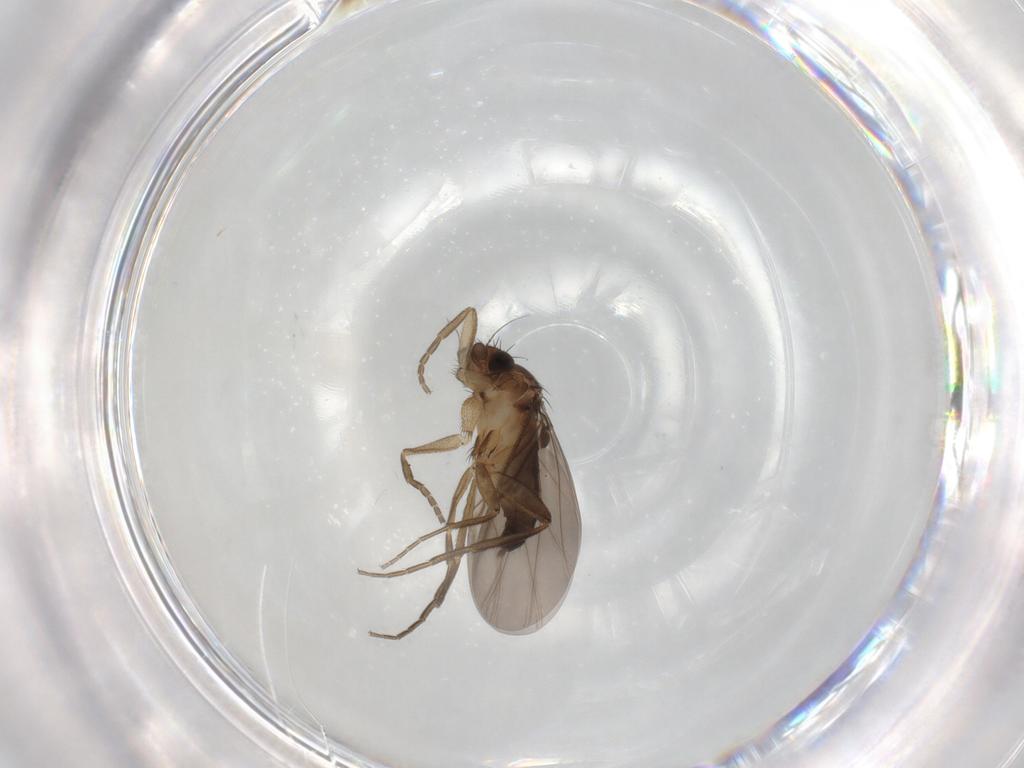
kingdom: Animalia
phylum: Arthropoda
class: Insecta
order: Diptera
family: Phoridae
